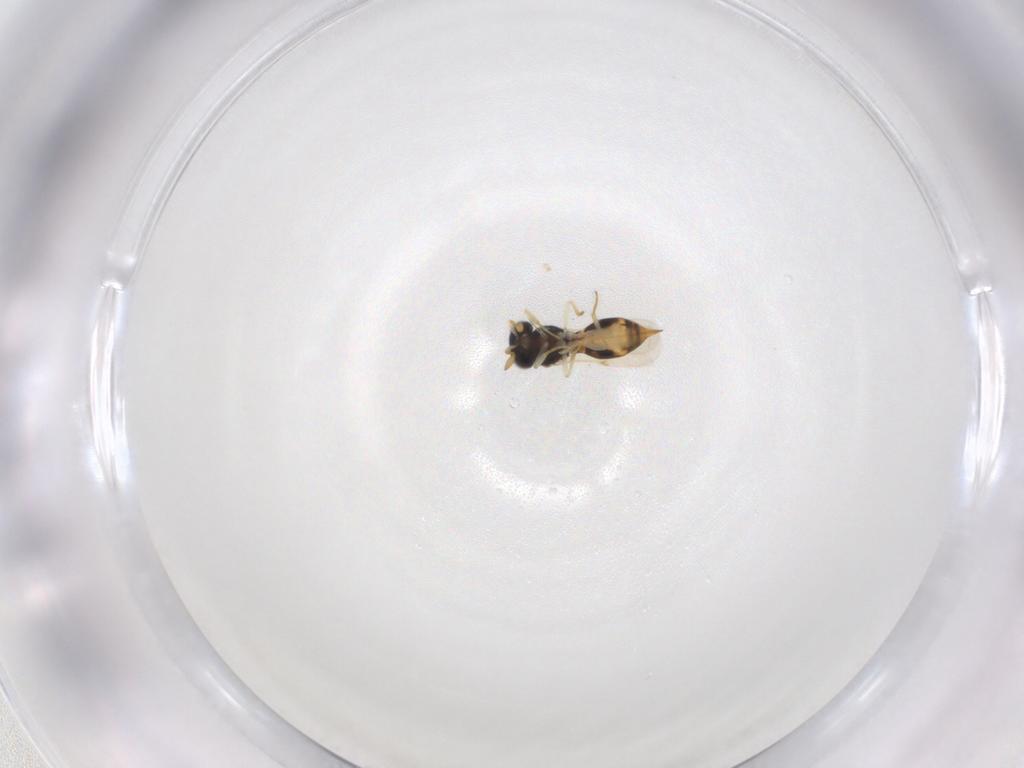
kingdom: Animalia
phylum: Arthropoda
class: Insecta
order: Hymenoptera
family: Scelionidae
